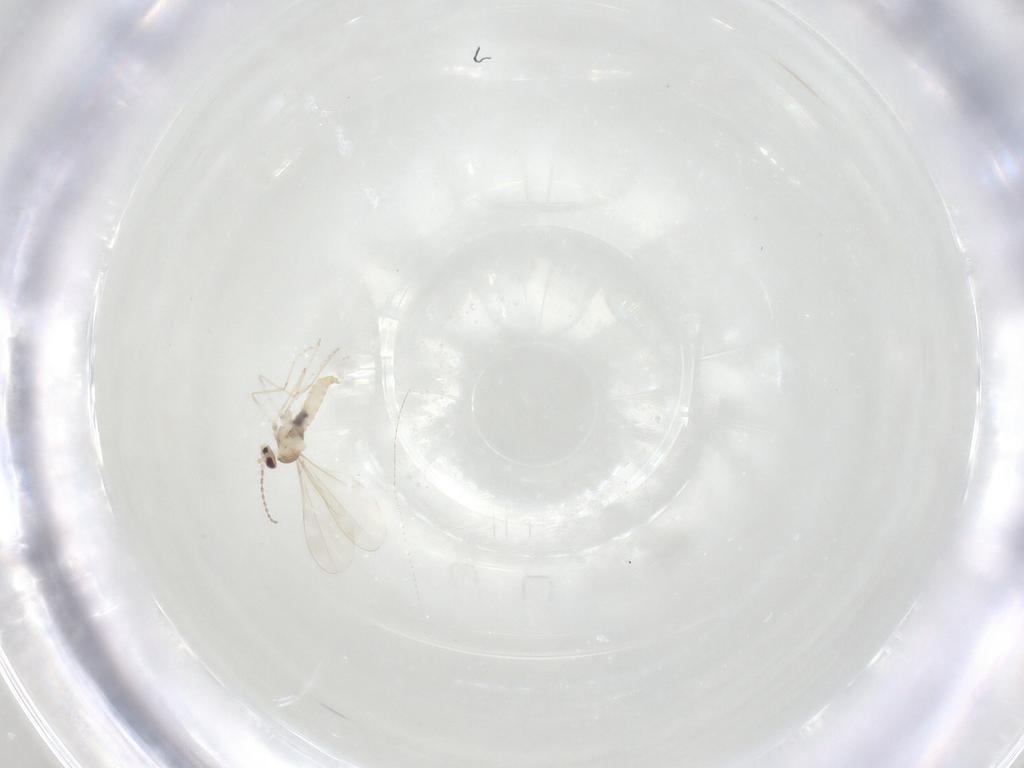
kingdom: Animalia
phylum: Arthropoda
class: Insecta
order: Diptera
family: Cecidomyiidae
